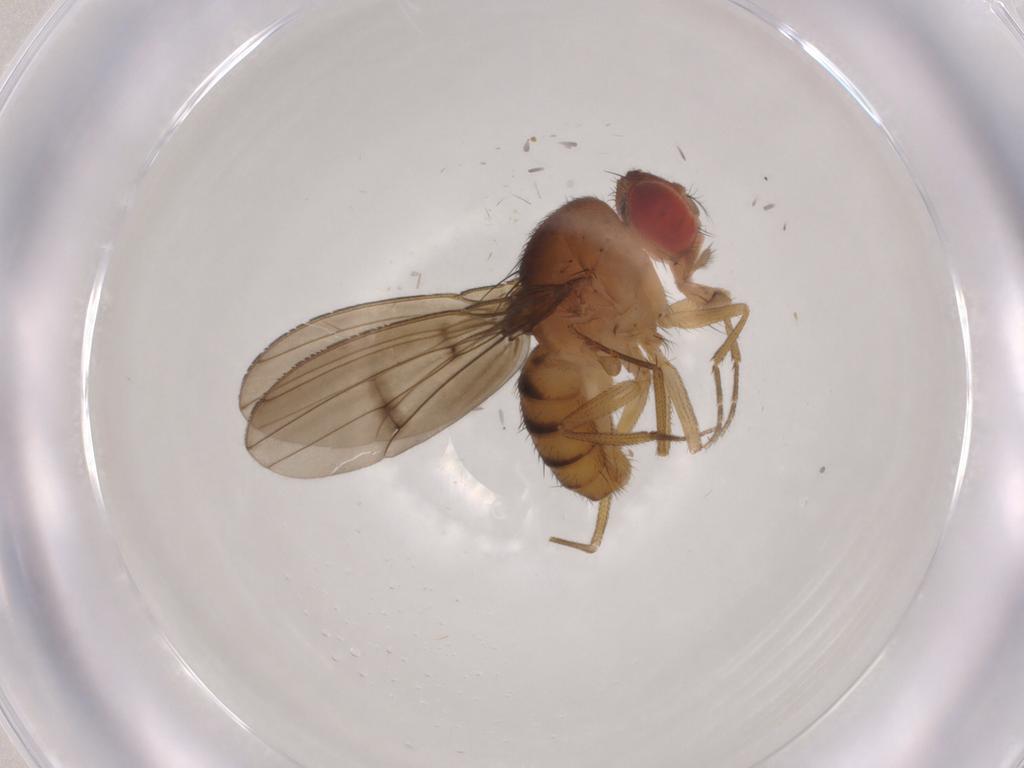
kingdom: Animalia
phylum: Arthropoda
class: Insecta
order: Diptera
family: Drosophilidae
